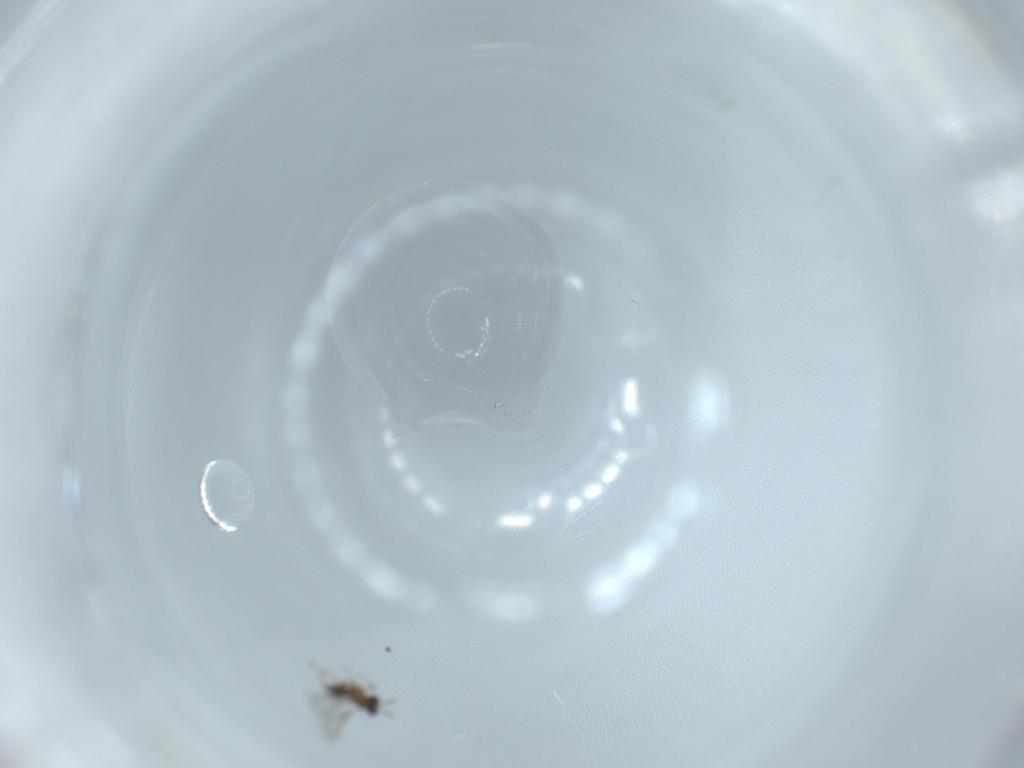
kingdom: Animalia
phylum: Arthropoda
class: Insecta
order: Hymenoptera
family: Mymaridae
